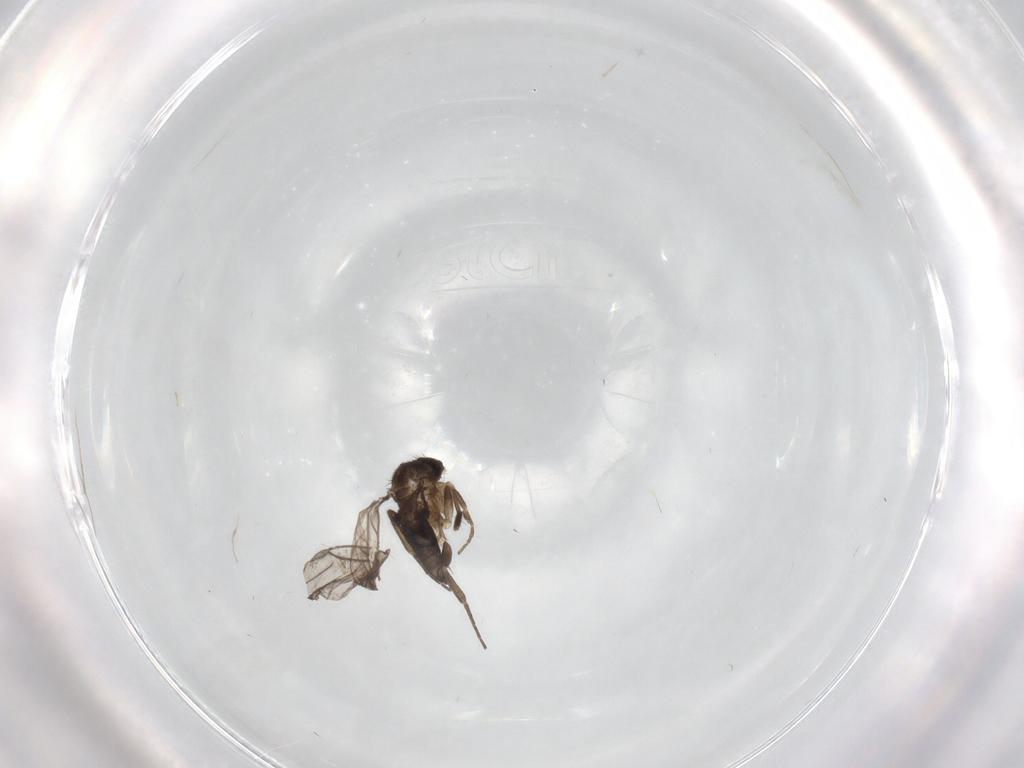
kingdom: Animalia
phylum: Arthropoda
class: Insecta
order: Diptera
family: Phoridae
